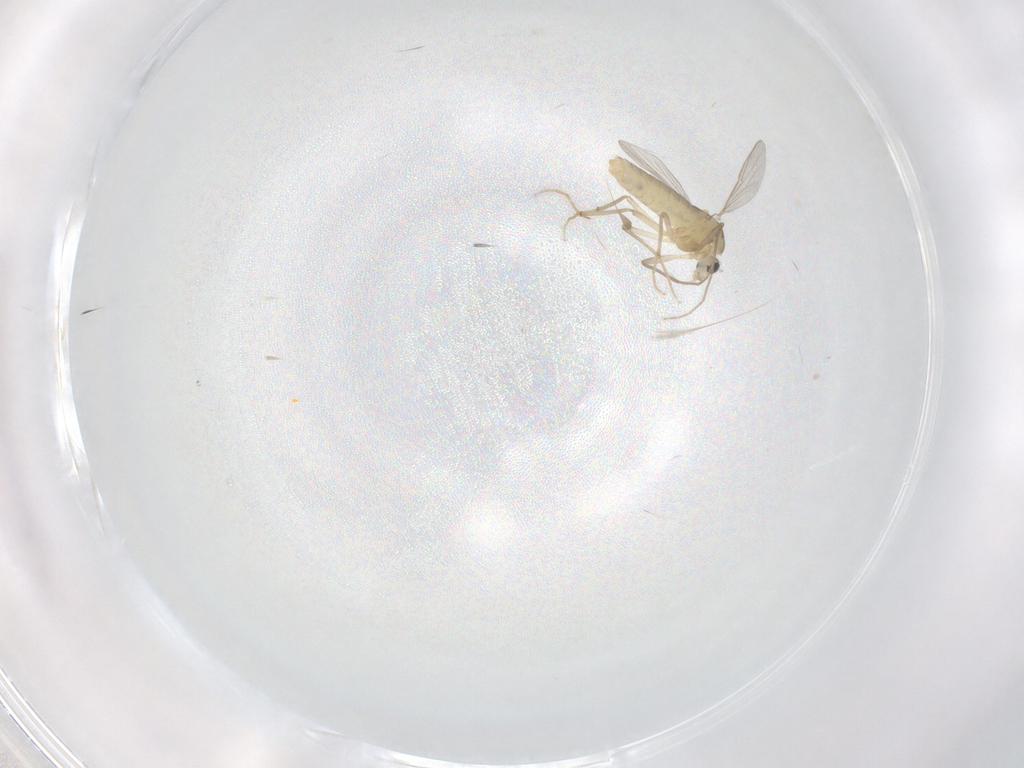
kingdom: Animalia
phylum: Arthropoda
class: Insecta
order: Diptera
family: Chironomidae
